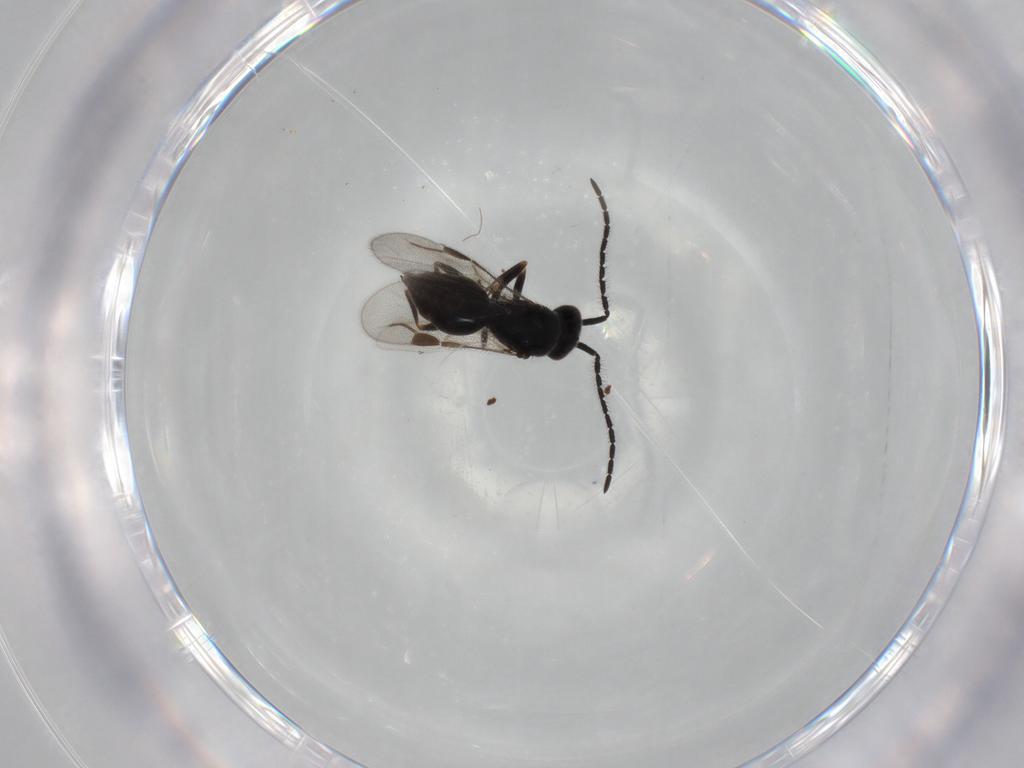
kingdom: Animalia
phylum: Arthropoda
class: Insecta
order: Hymenoptera
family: Megaspilidae
